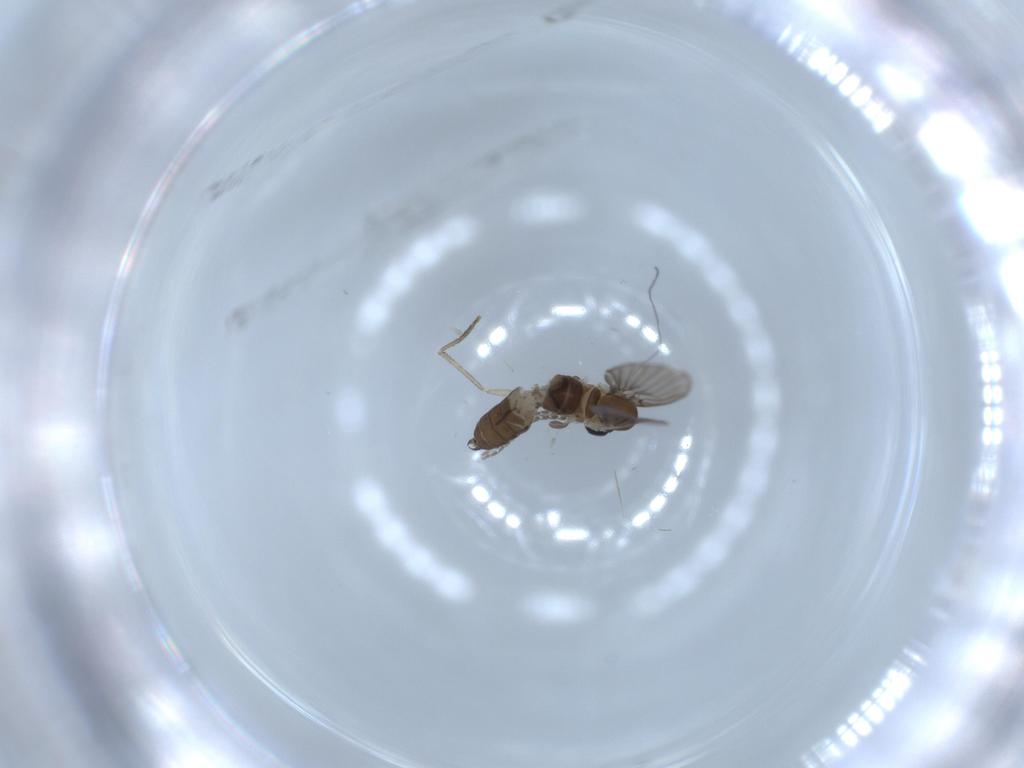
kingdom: Animalia
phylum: Arthropoda
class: Insecta
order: Diptera
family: Psychodidae
